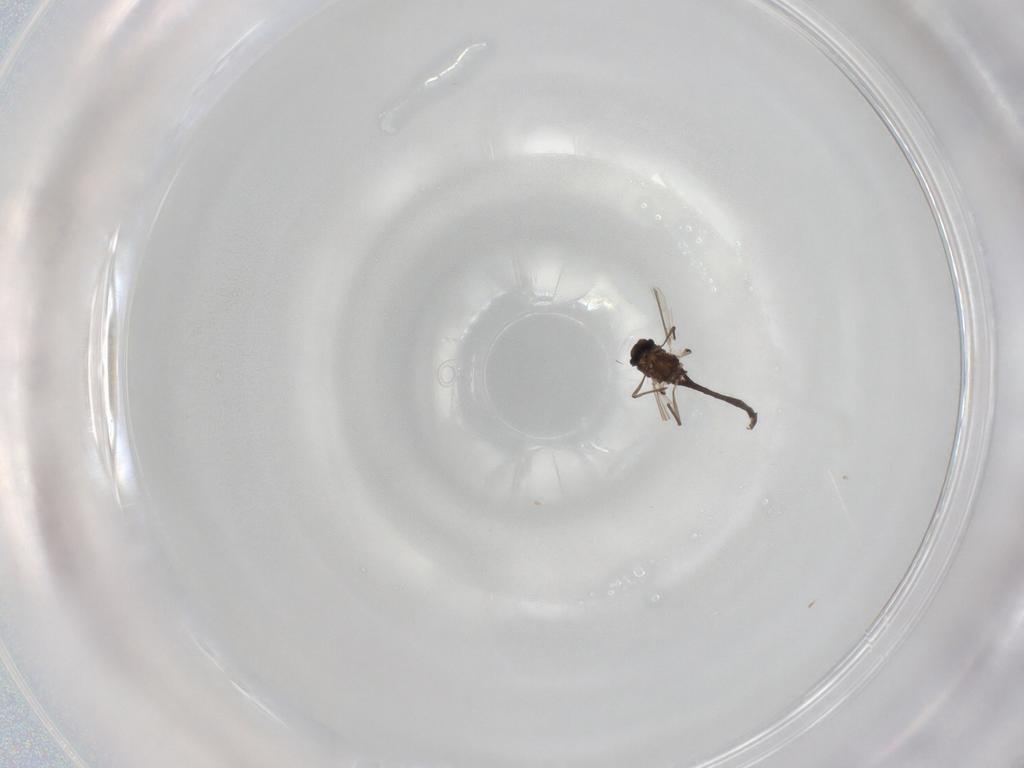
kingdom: Animalia
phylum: Arthropoda
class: Insecta
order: Diptera
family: Chironomidae
